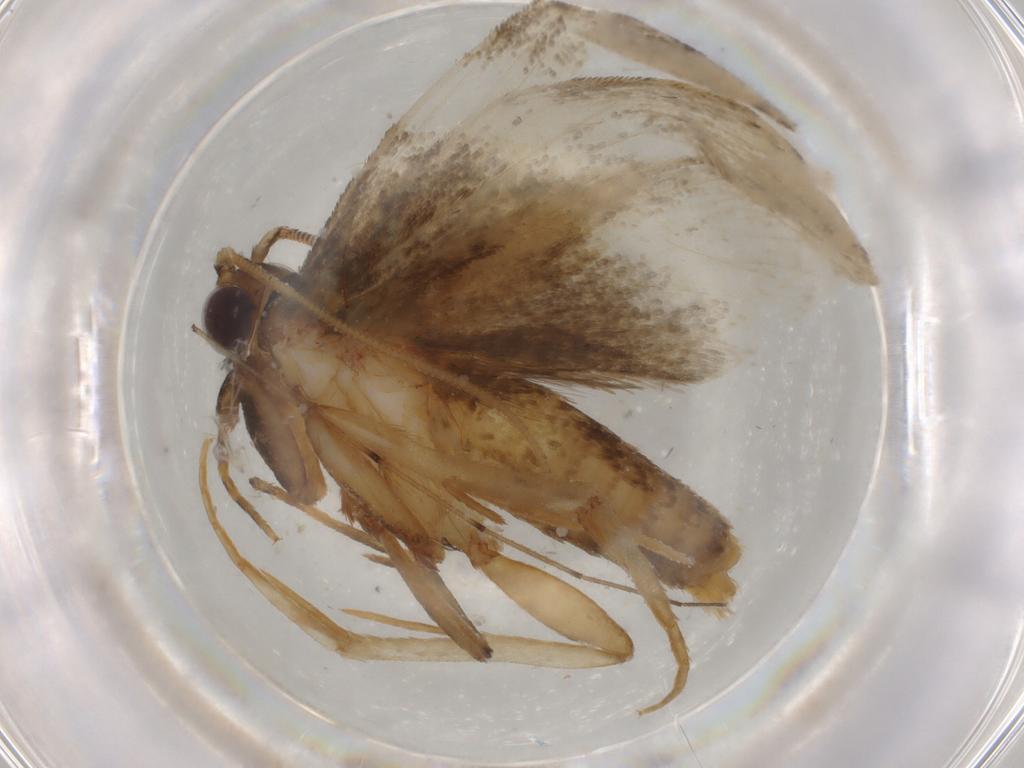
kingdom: Animalia
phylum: Arthropoda
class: Insecta
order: Lepidoptera
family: Tineidae
